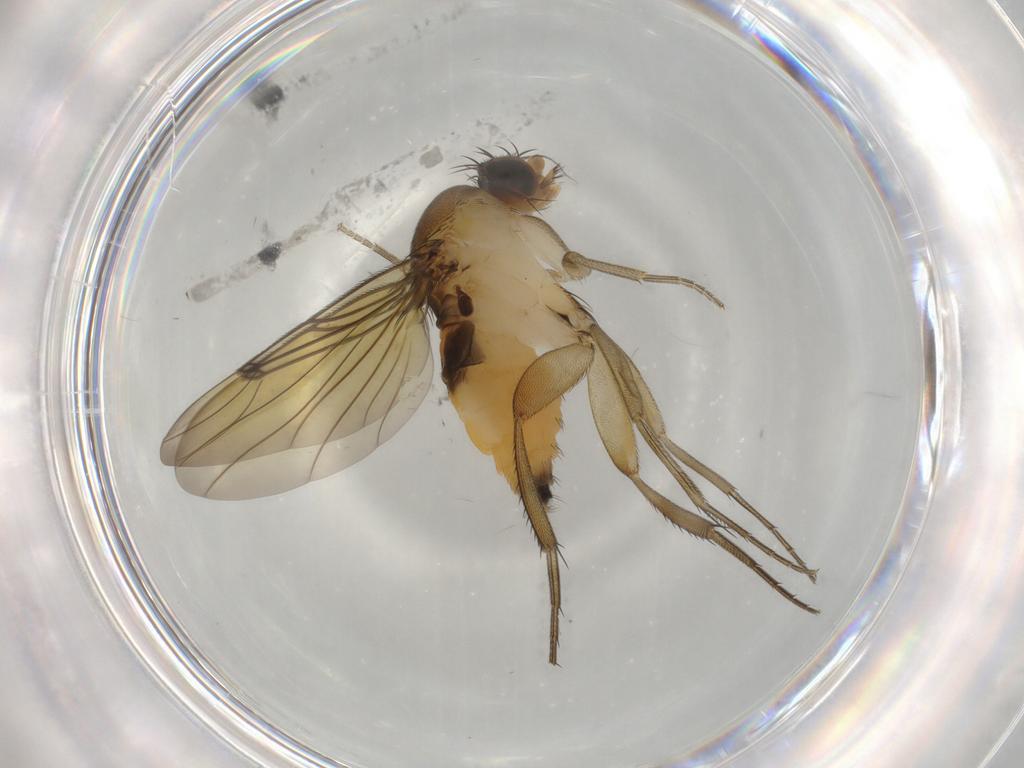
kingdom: Animalia
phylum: Arthropoda
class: Insecta
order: Diptera
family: Phoridae
